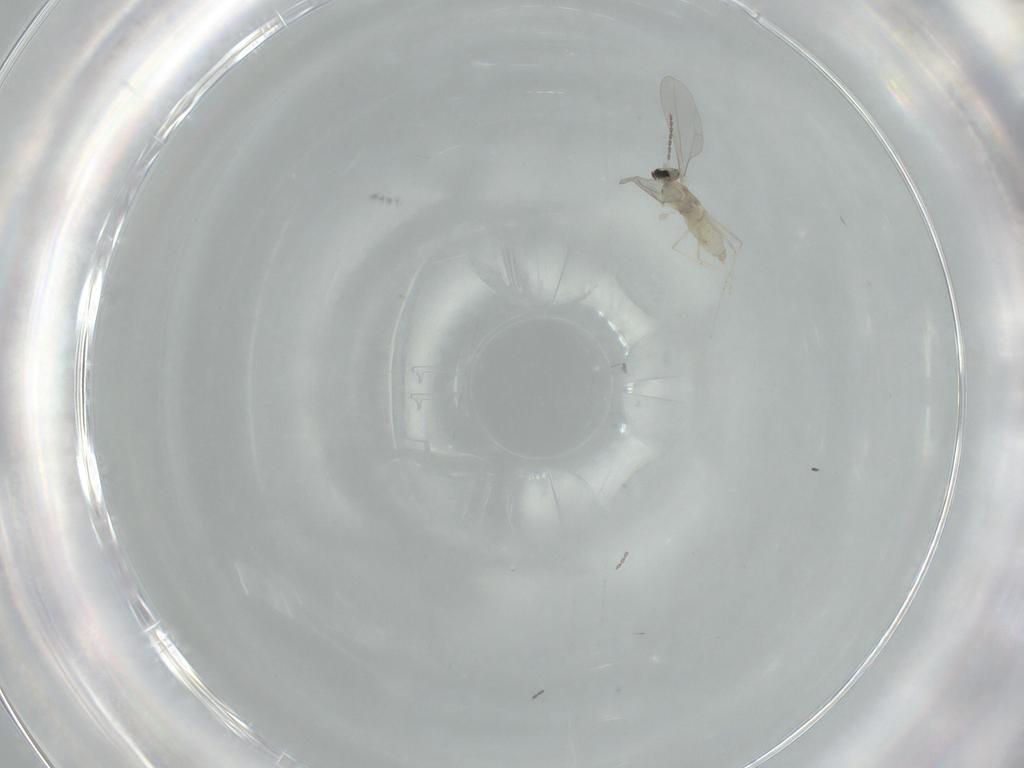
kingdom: Animalia
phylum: Arthropoda
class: Insecta
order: Diptera
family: Cecidomyiidae
